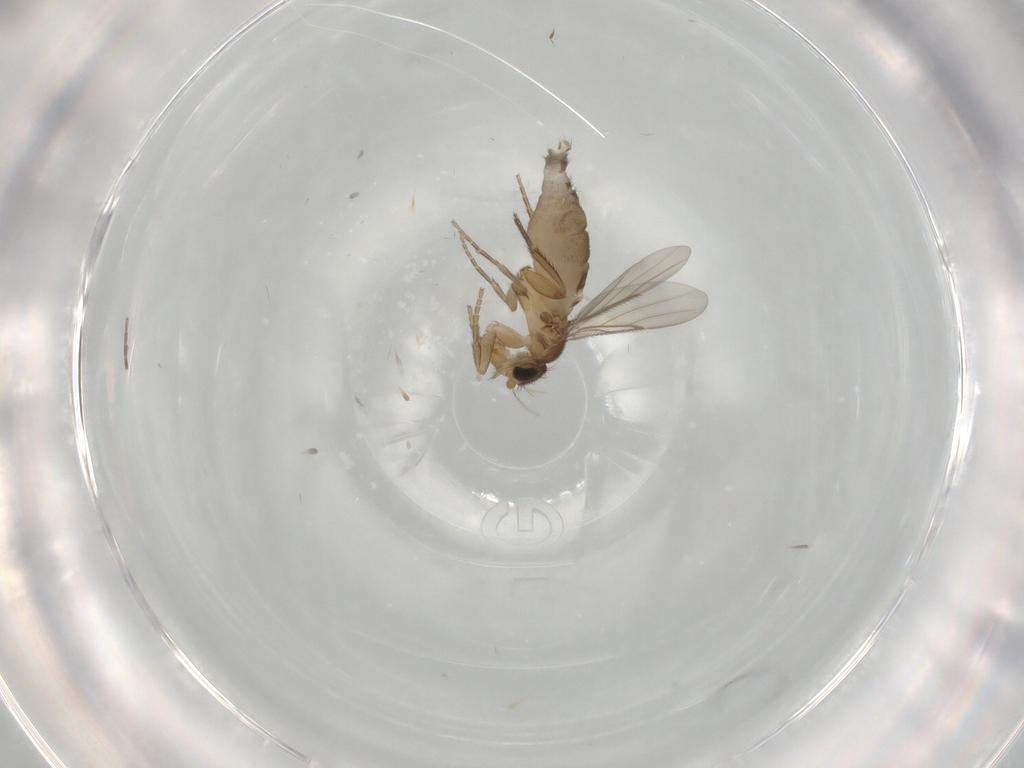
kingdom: Animalia
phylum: Arthropoda
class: Insecta
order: Diptera
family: Phoridae
